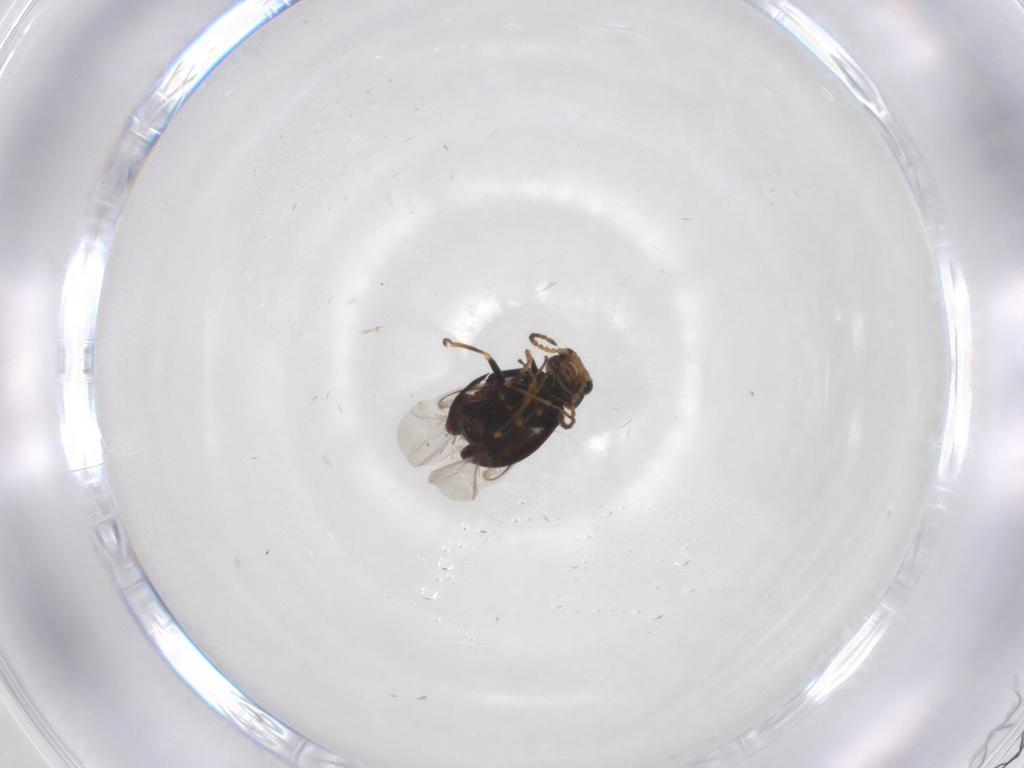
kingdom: Animalia
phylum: Arthropoda
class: Insecta
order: Coleoptera
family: Melyridae
